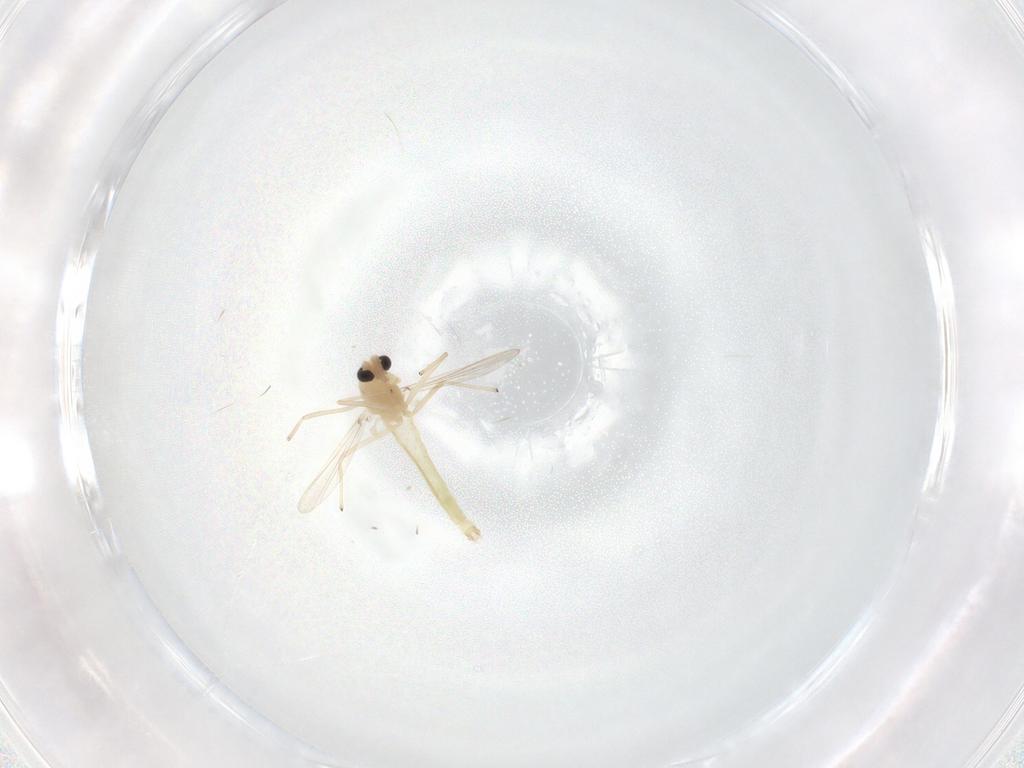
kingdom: Animalia
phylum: Arthropoda
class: Insecta
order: Diptera
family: Chironomidae
